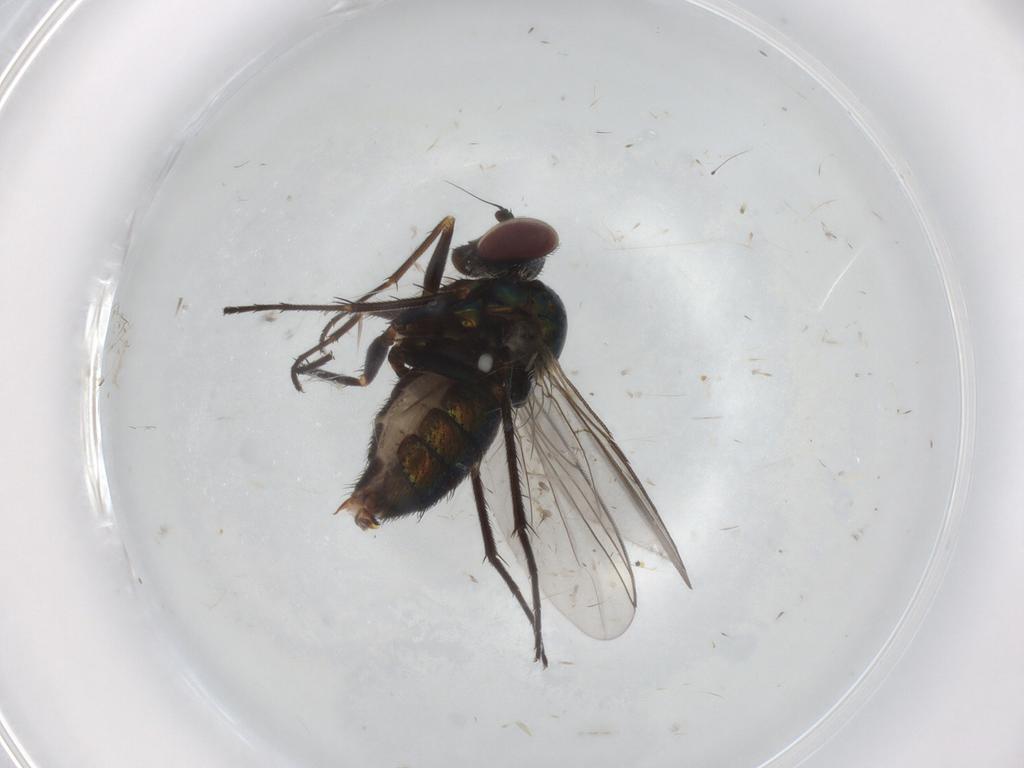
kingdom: Animalia
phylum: Arthropoda
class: Insecta
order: Diptera
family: Dolichopodidae
